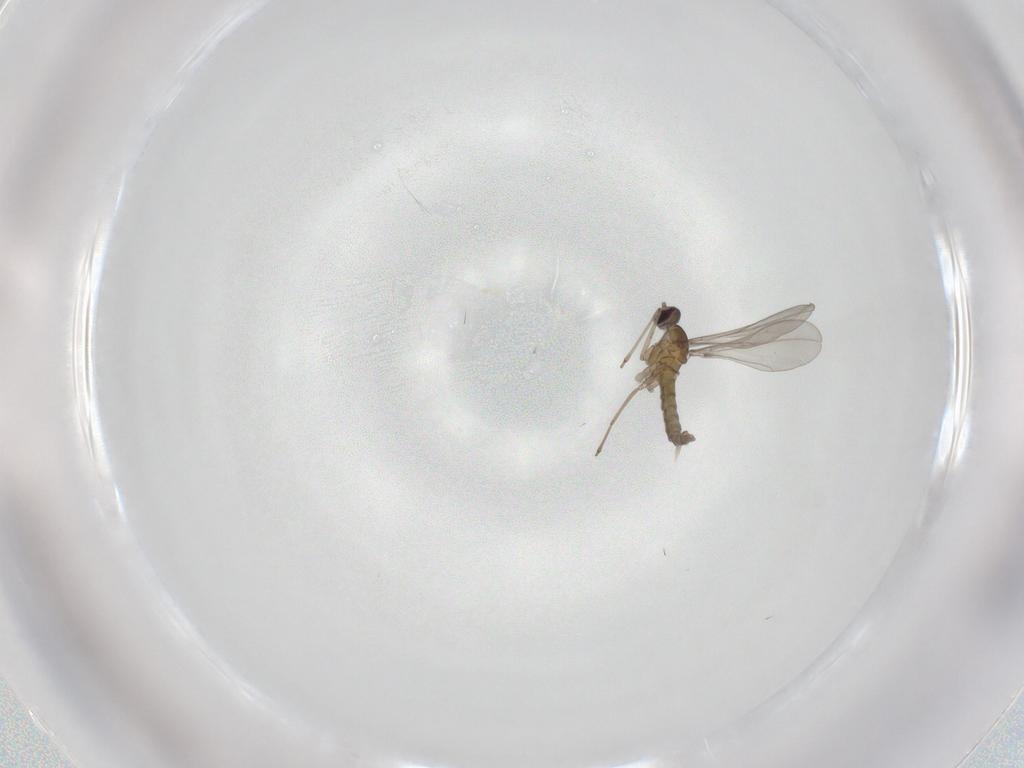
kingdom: Animalia
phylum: Arthropoda
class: Insecta
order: Diptera
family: Cecidomyiidae
